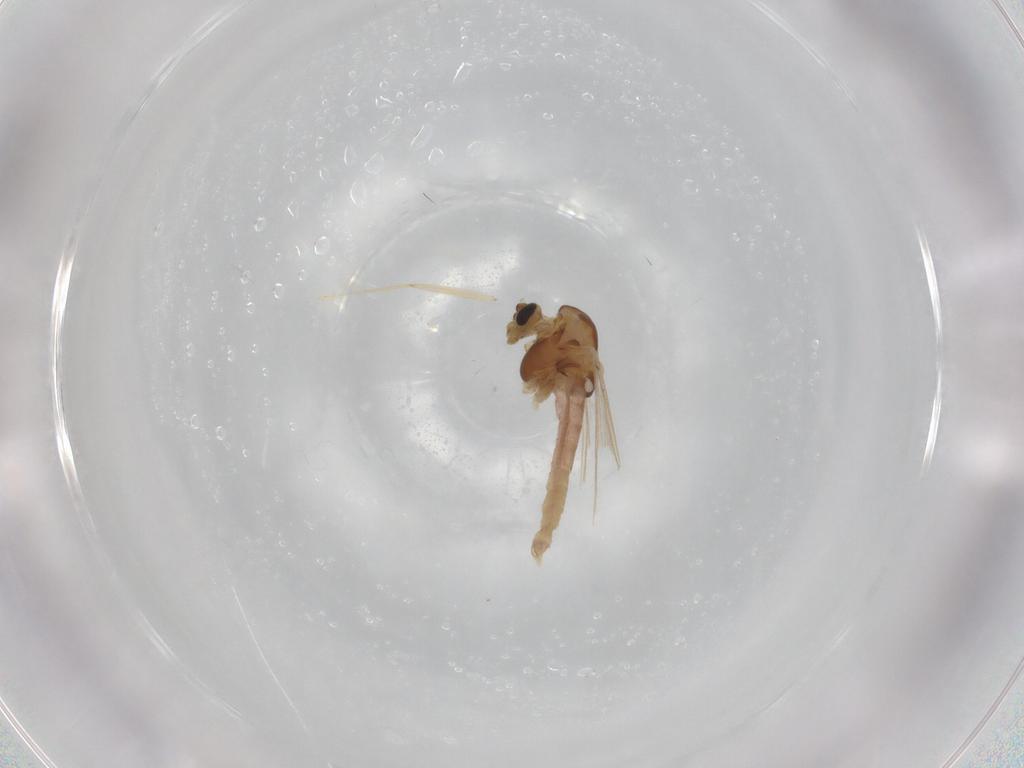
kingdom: Animalia
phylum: Arthropoda
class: Insecta
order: Diptera
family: Chironomidae
